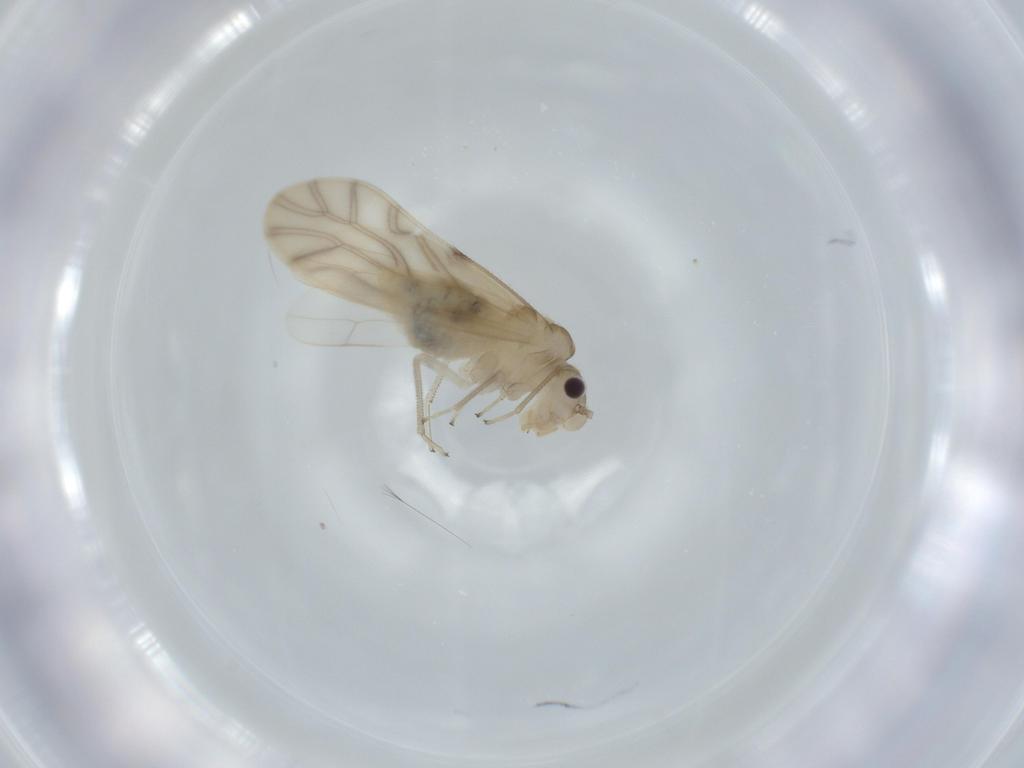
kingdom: Animalia
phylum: Arthropoda
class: Insecta
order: Psocodea
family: Caeciliusidae
